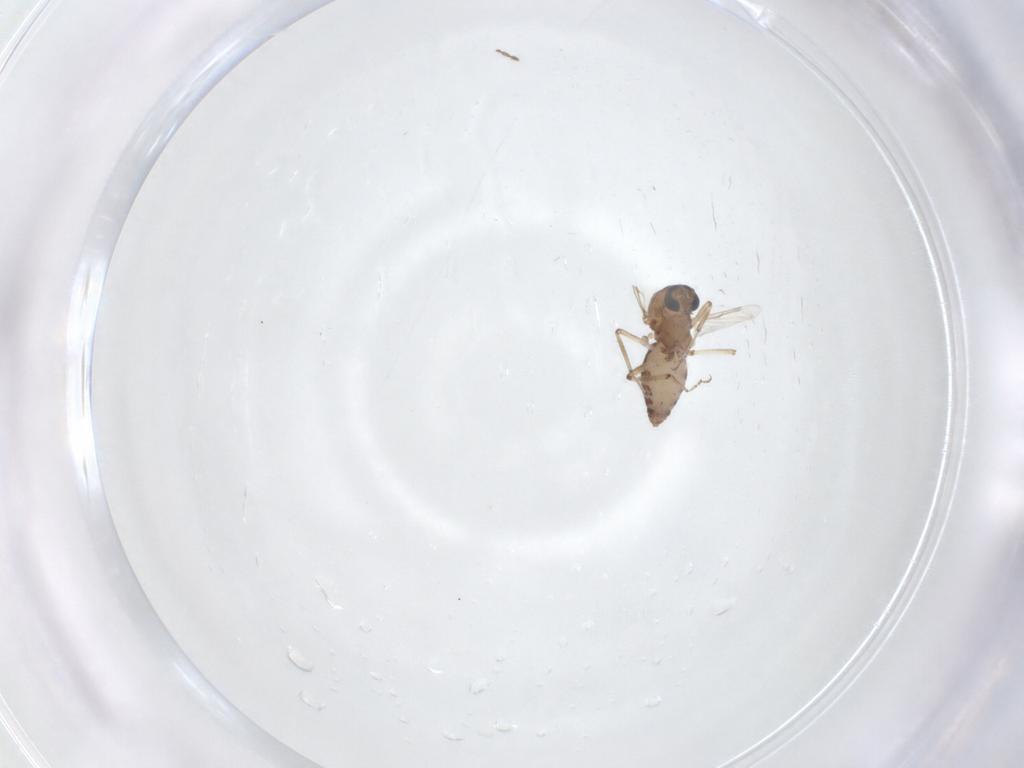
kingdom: Animalia
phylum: Arthropoda
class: Insecta
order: Diptera
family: Ceratopogonidae
